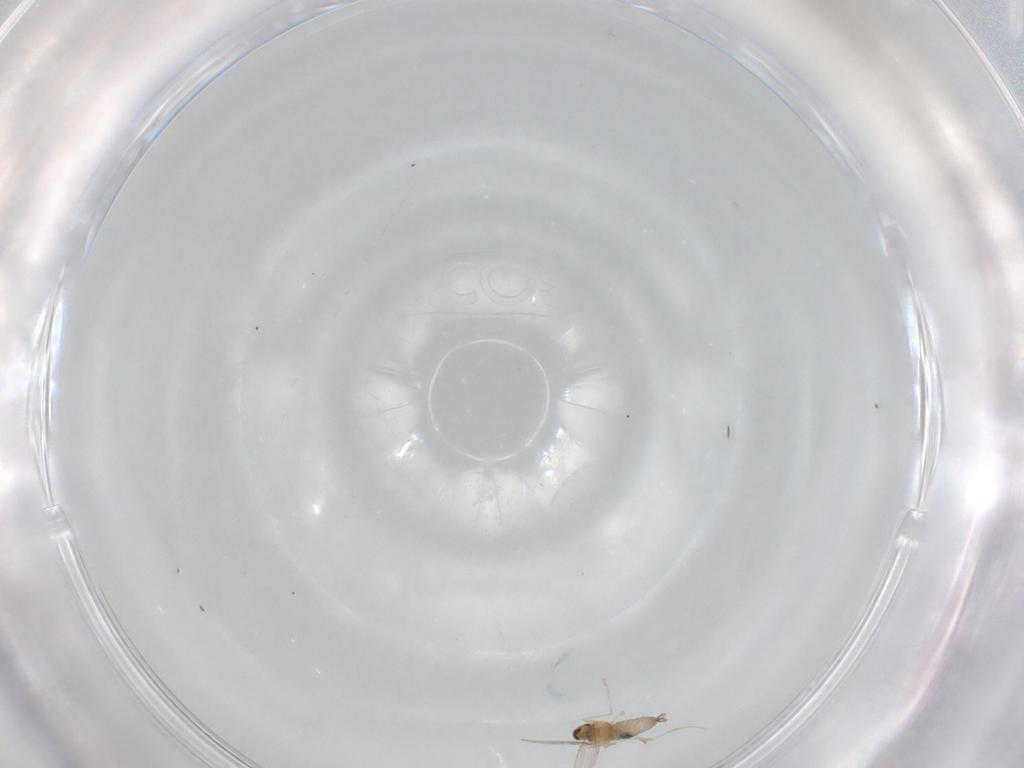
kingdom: Animalia
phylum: Arthropoda
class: Insecta
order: Diptera
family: Cecidomyiidae
